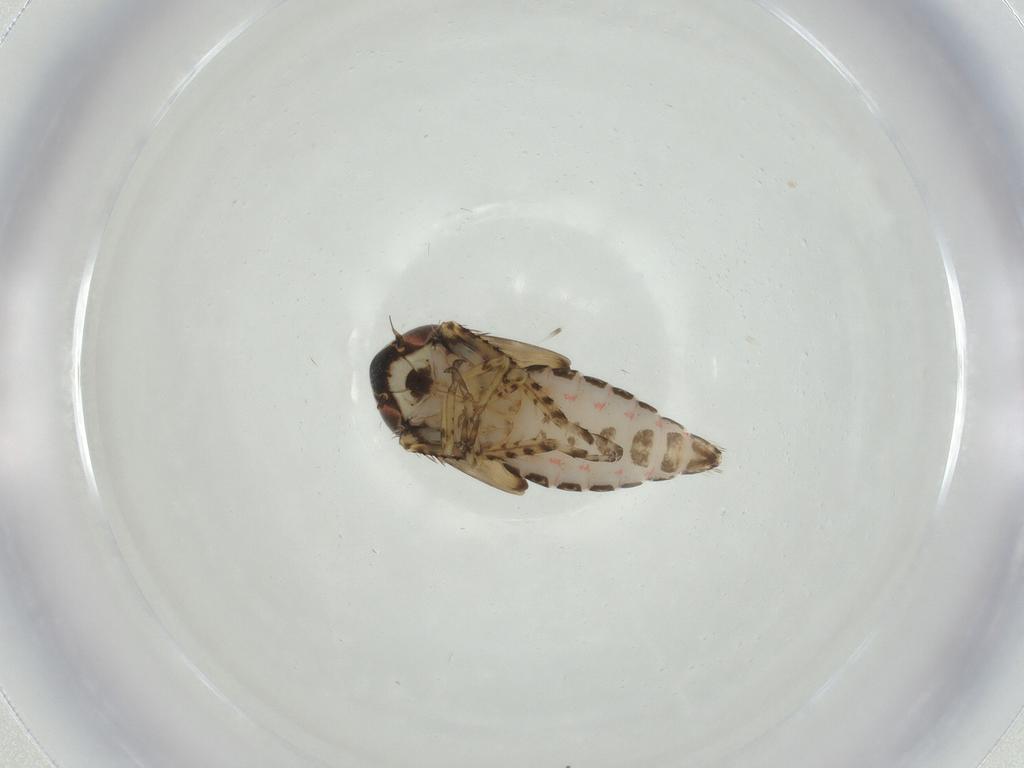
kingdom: Animalia
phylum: Arthropoda
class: Insecta
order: Hemiptera
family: Cicadellidae
